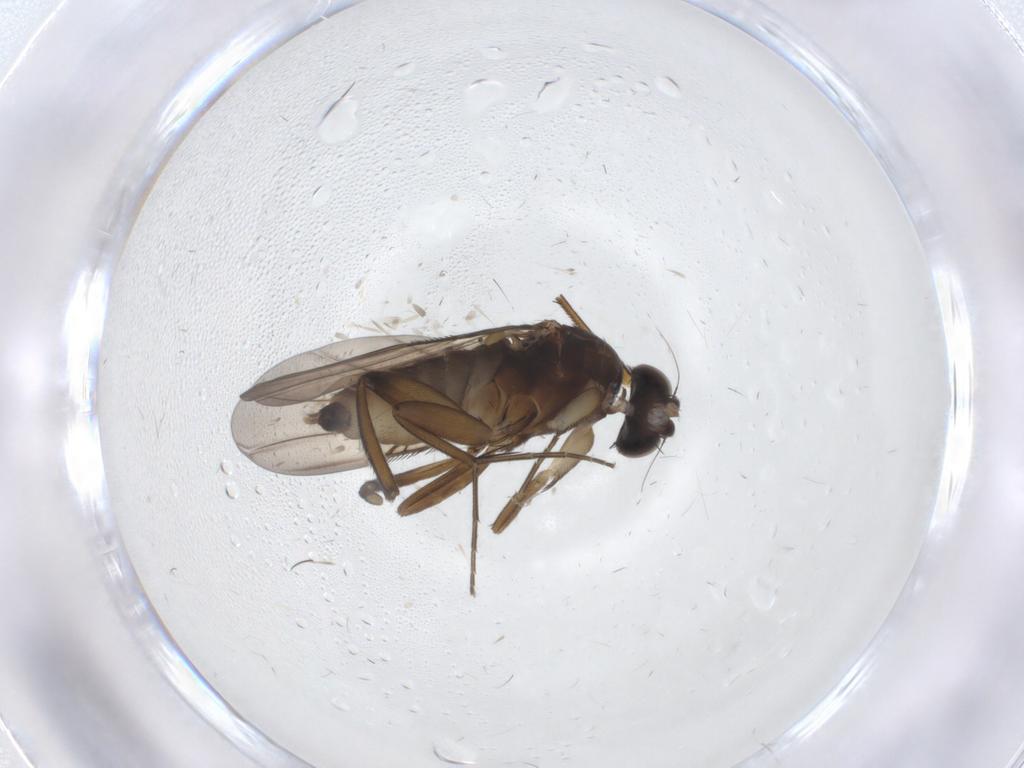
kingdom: Animalia
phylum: Arthropoda
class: Insecta
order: Diptera
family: Phoridae
